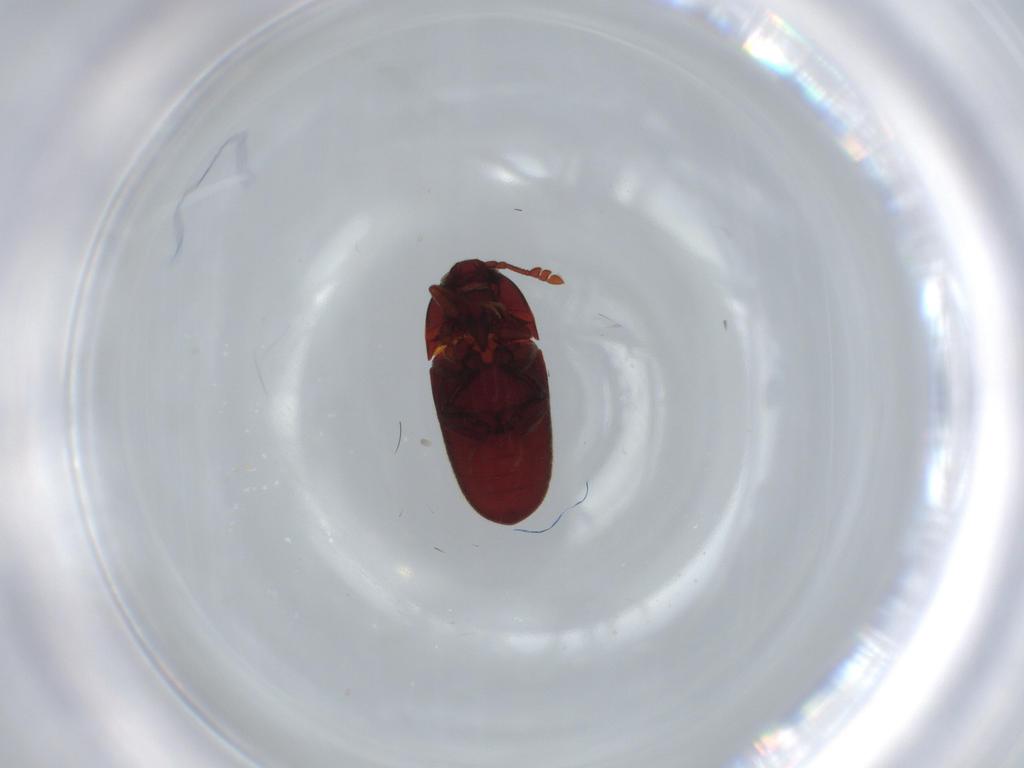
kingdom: Animalia
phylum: Arthropoda
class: Insecta
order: Coleoptera
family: Throscidae
